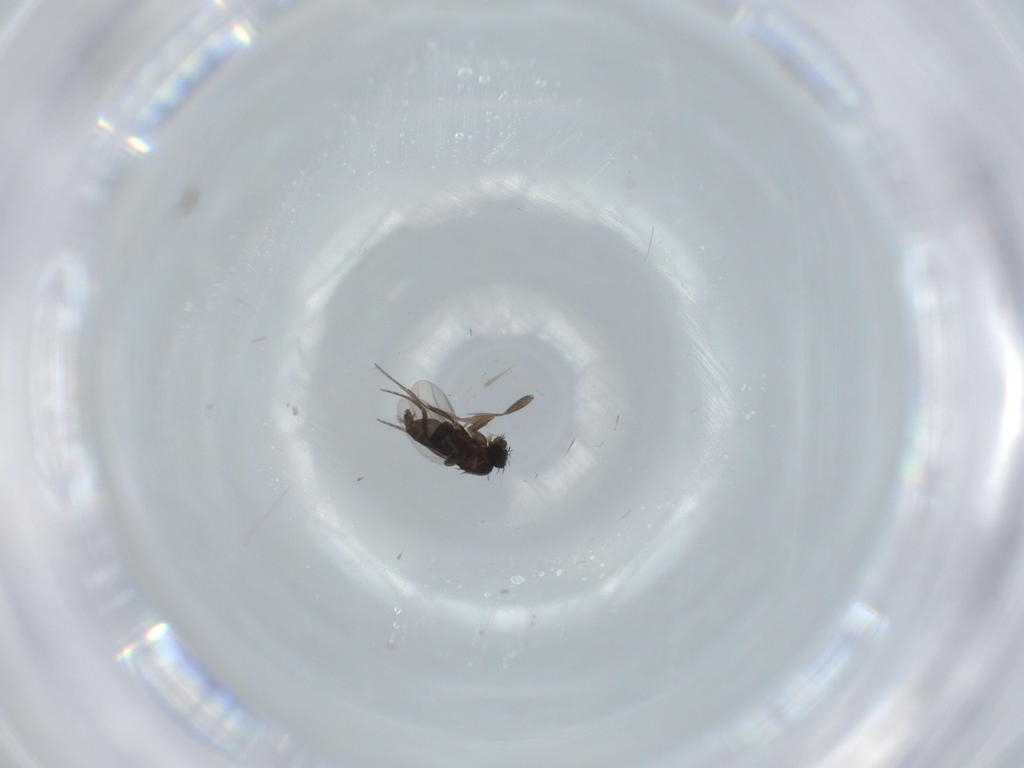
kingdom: Animalia
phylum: Arthropoda
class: Insecta
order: Diptera
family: Phoridae
